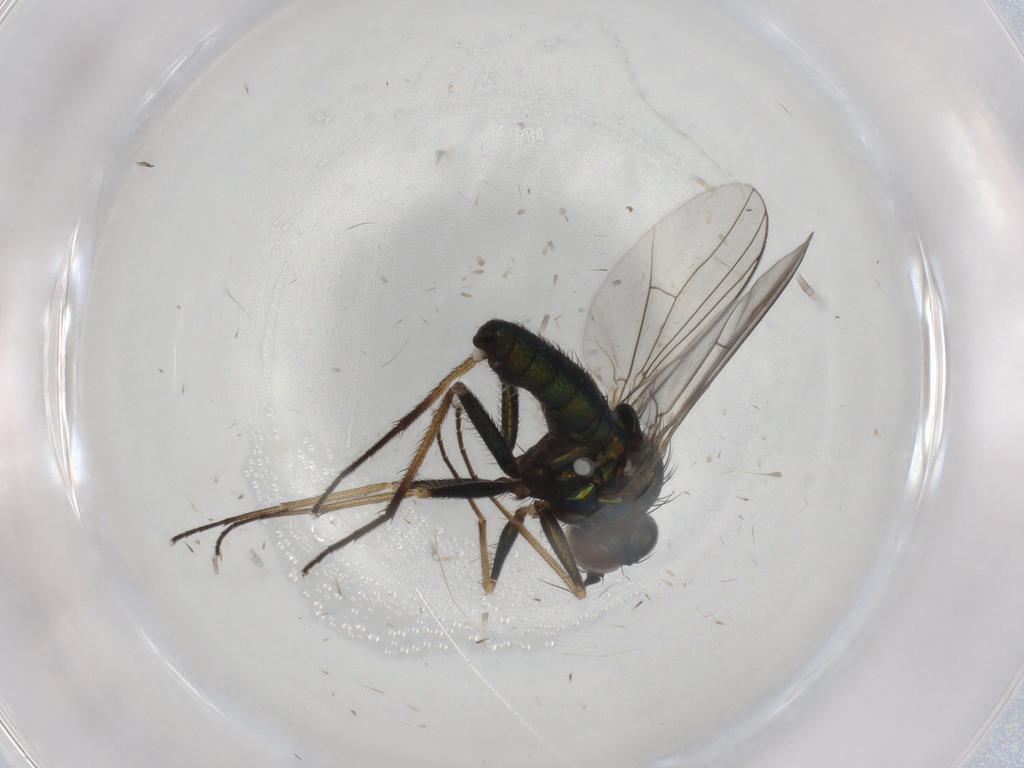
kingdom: Animalia
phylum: Arthropoda
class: Insecta
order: Diptera
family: Dolichopodidae
